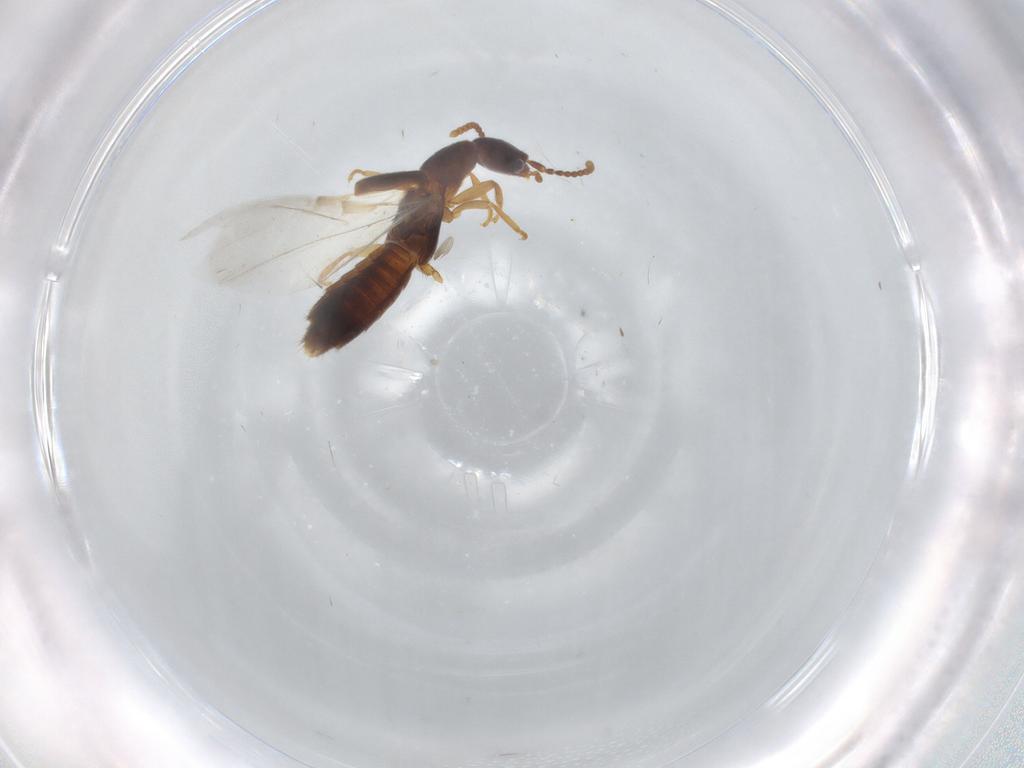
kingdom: Animalia
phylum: Arthropoda
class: Insecta
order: Coleoptera
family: Staphylinidae
